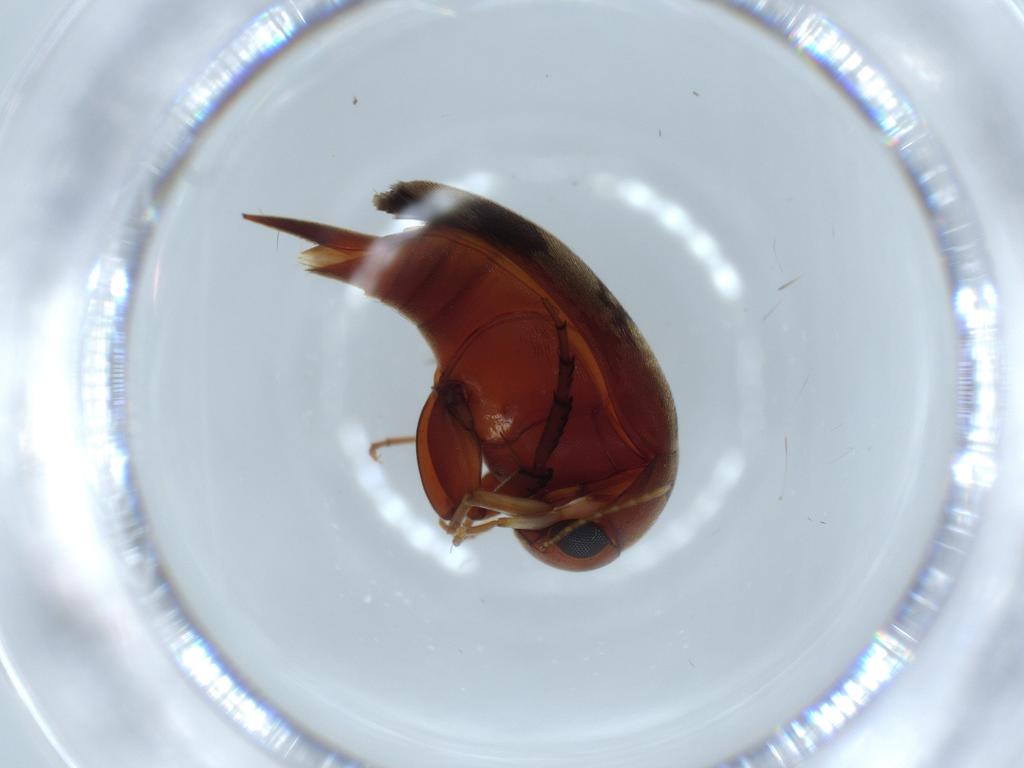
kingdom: Animalia
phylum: Arthropoda
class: Insecta
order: Coleoptera
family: Mordellidae
